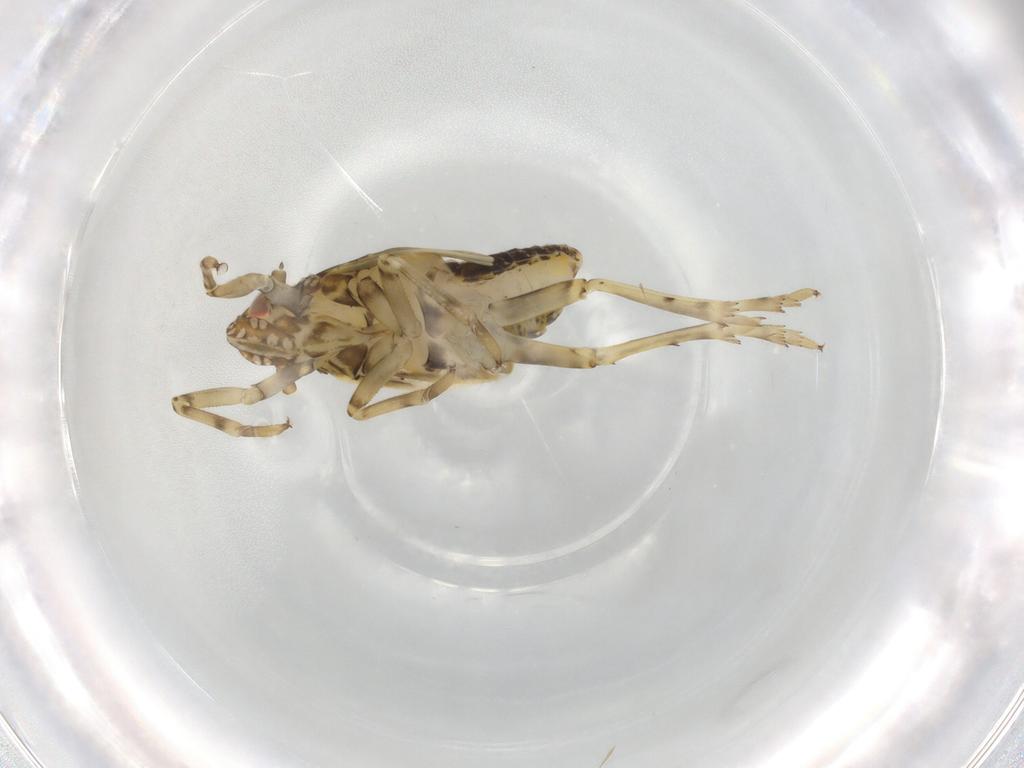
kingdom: Animalia
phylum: Arthropoda
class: Insecta
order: Hemiptera
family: Delphacidae
